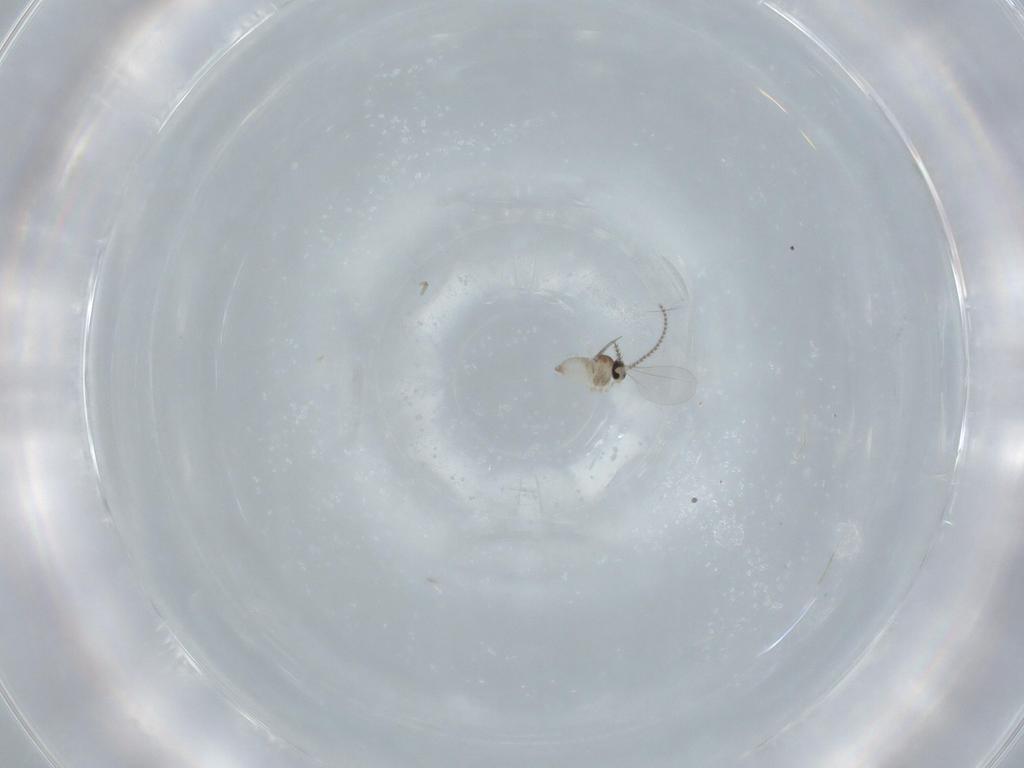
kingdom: Animalia
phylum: Arthropoda
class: Insecta
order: Diptera
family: Cecidomyiidae
